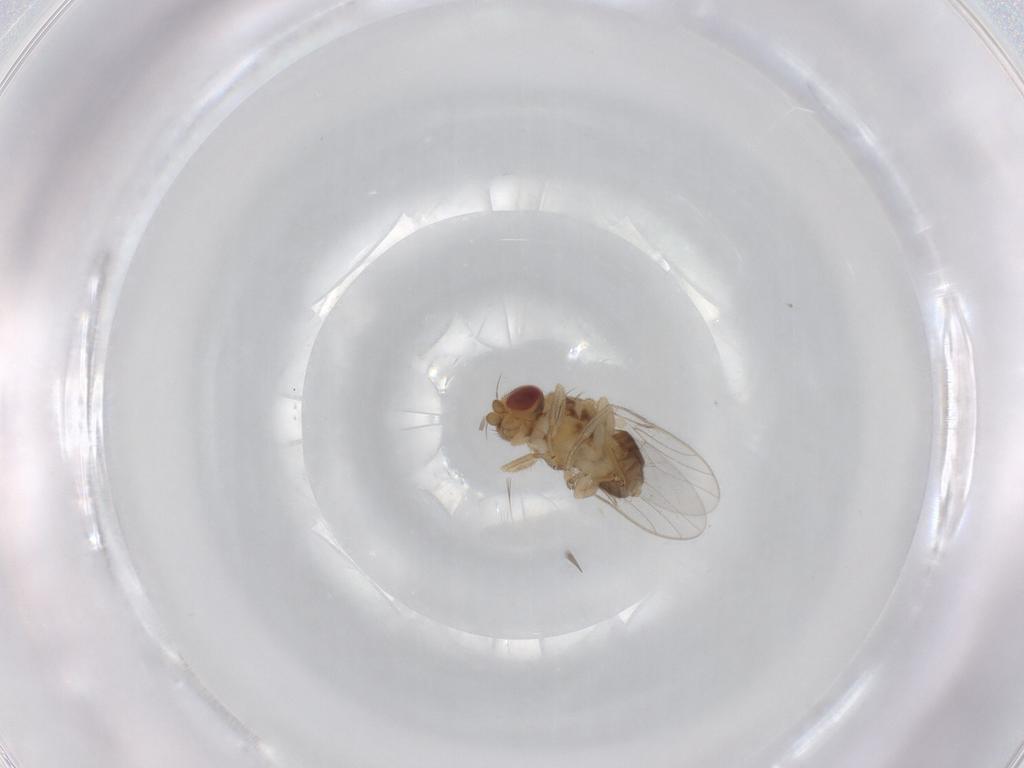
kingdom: Animalia
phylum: Arthropoda
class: Insecta
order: Diptera
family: Chloropidae
